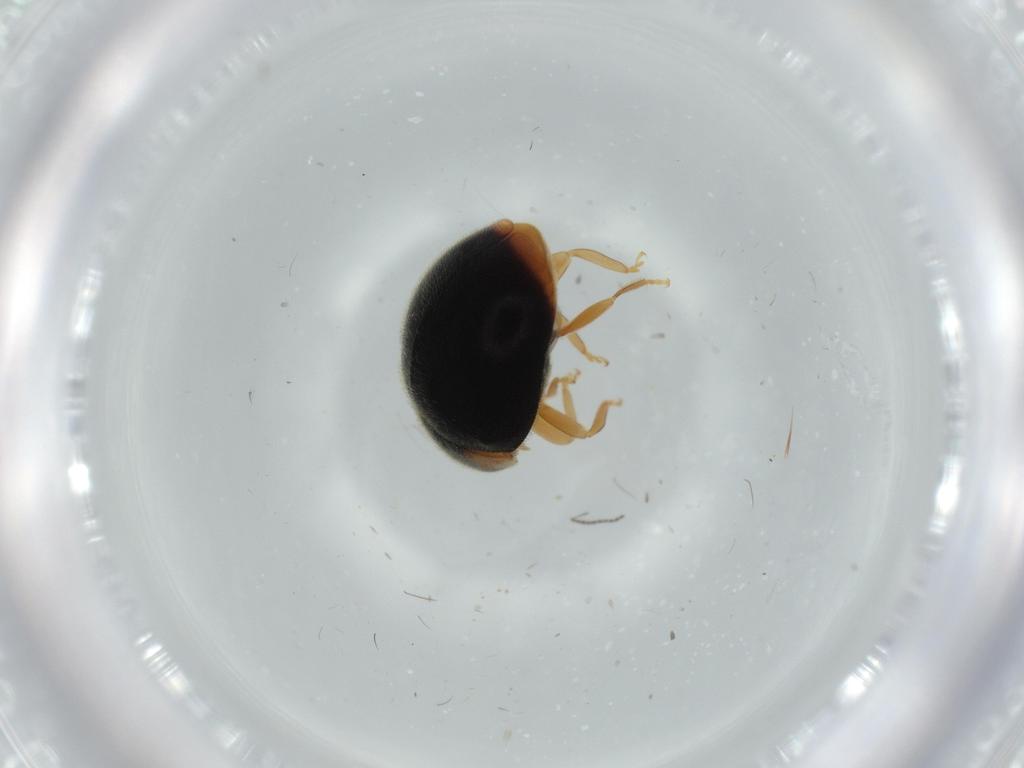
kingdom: Animalia
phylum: Arthropoda
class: Insecta
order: Coleoptera
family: Coccinellidae
